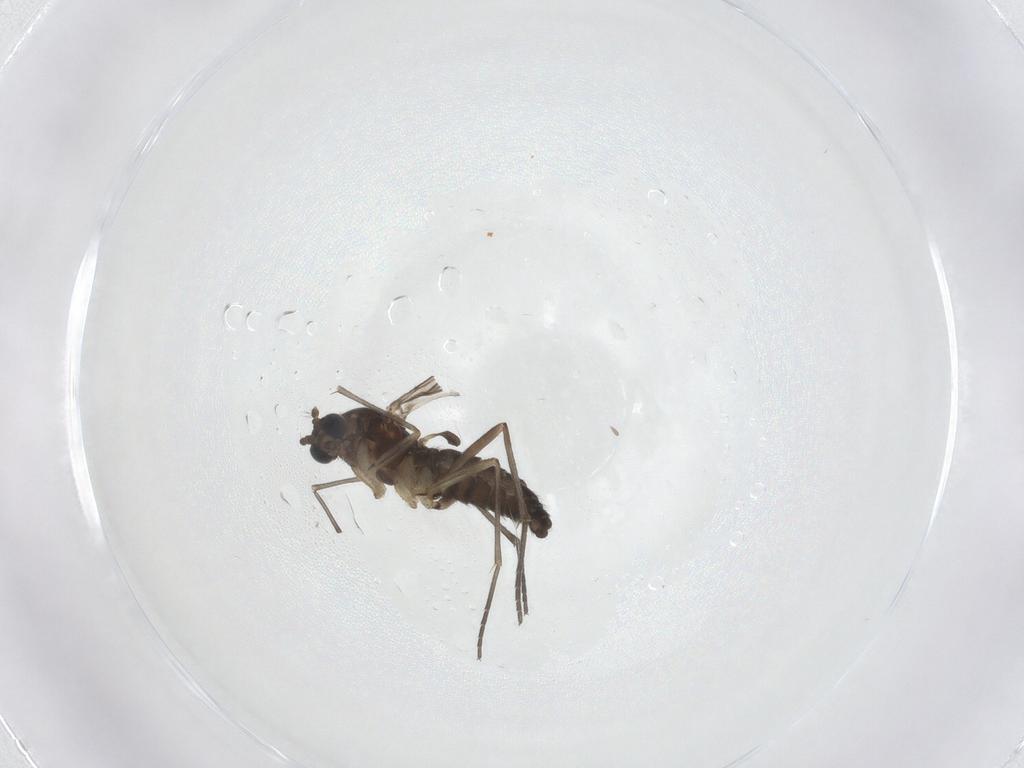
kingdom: Animalia
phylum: Arthropoda
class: Insecta
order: Diptera
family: Sciaridae
